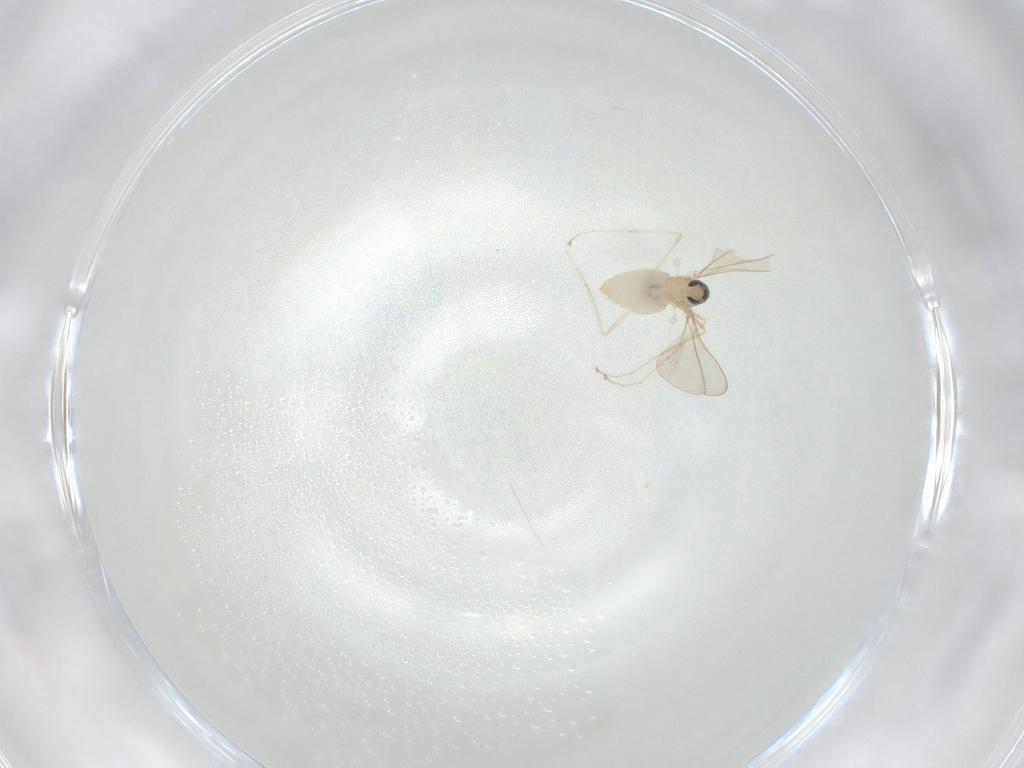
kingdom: Animalia
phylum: Arthropoda
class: Insecta
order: Diptera
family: Cecidomyiidae
